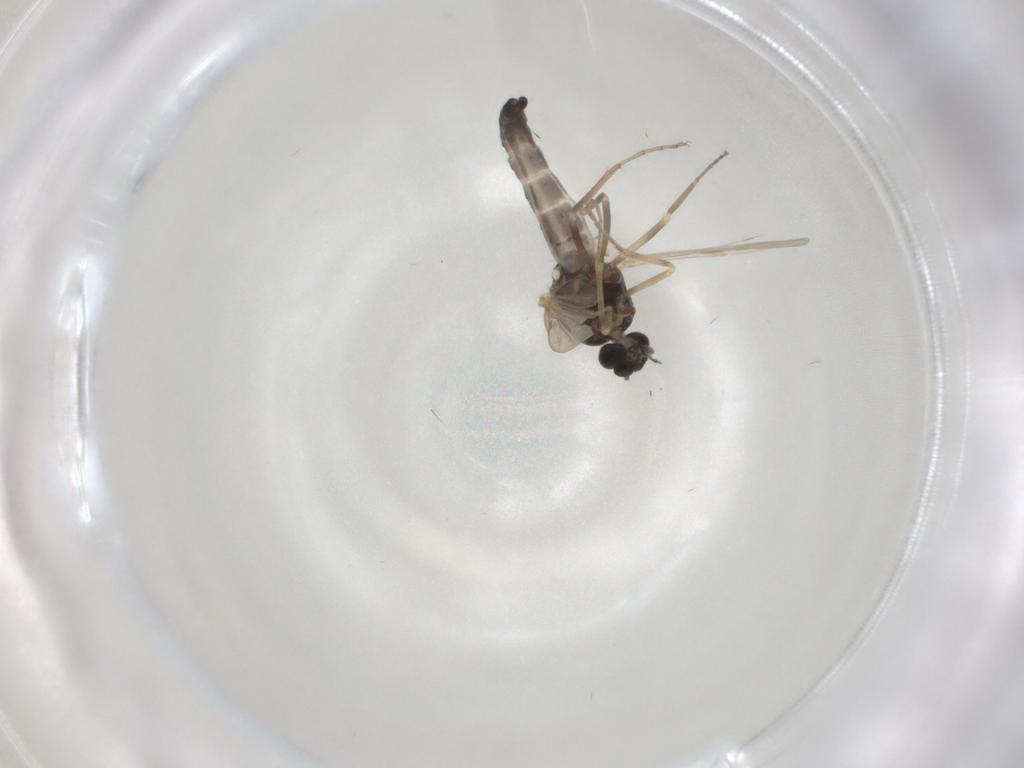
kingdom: Animalia
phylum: Arthropoda
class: Insecta
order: Diptera
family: Ceratopogonidae
